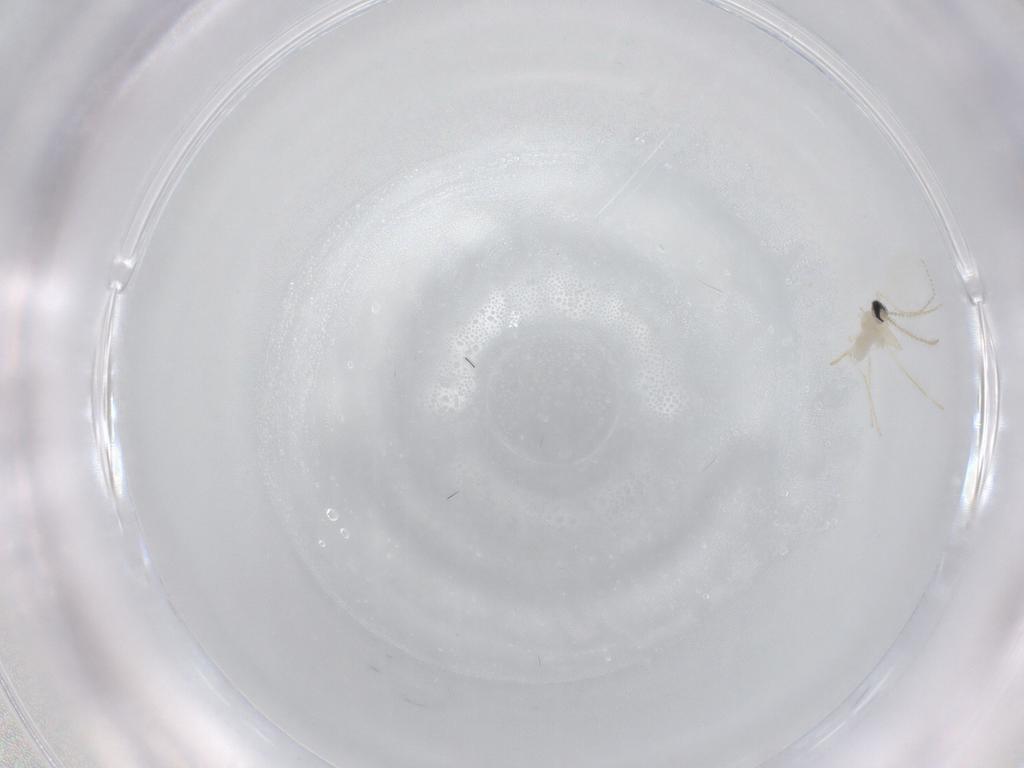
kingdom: Animalia
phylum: Arthropoda
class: Insecta
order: Diptera
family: Cecidomyiidae
